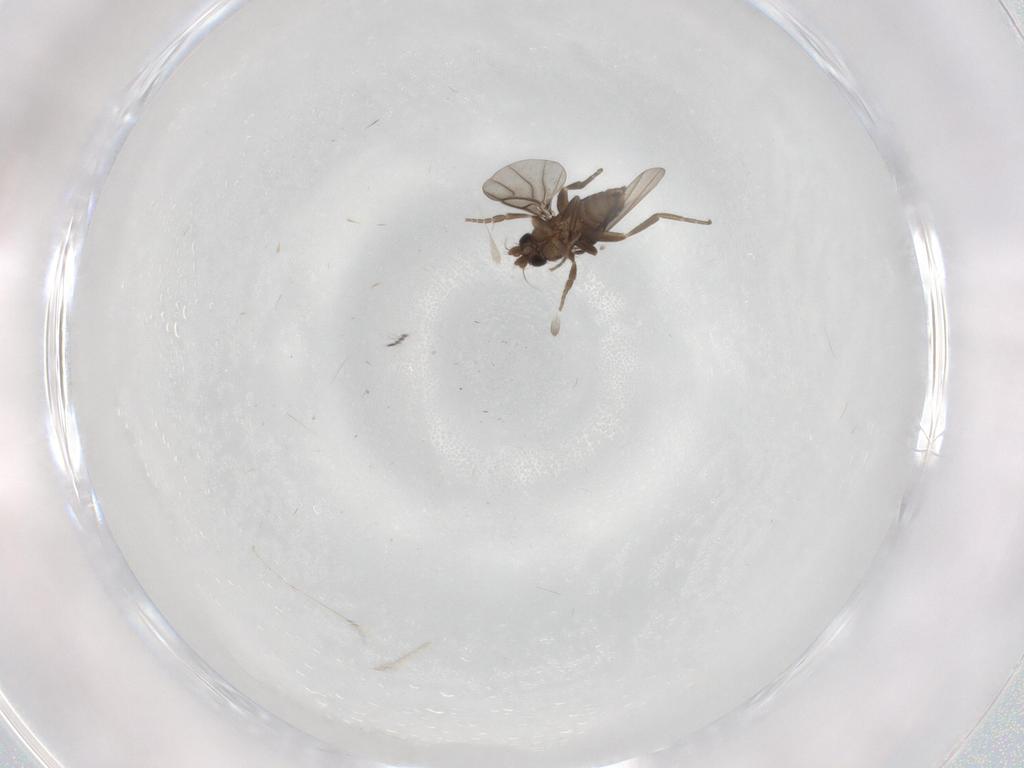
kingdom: Animalia
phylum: Arthropoda
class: Insecta
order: Diptera
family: Phoridae
